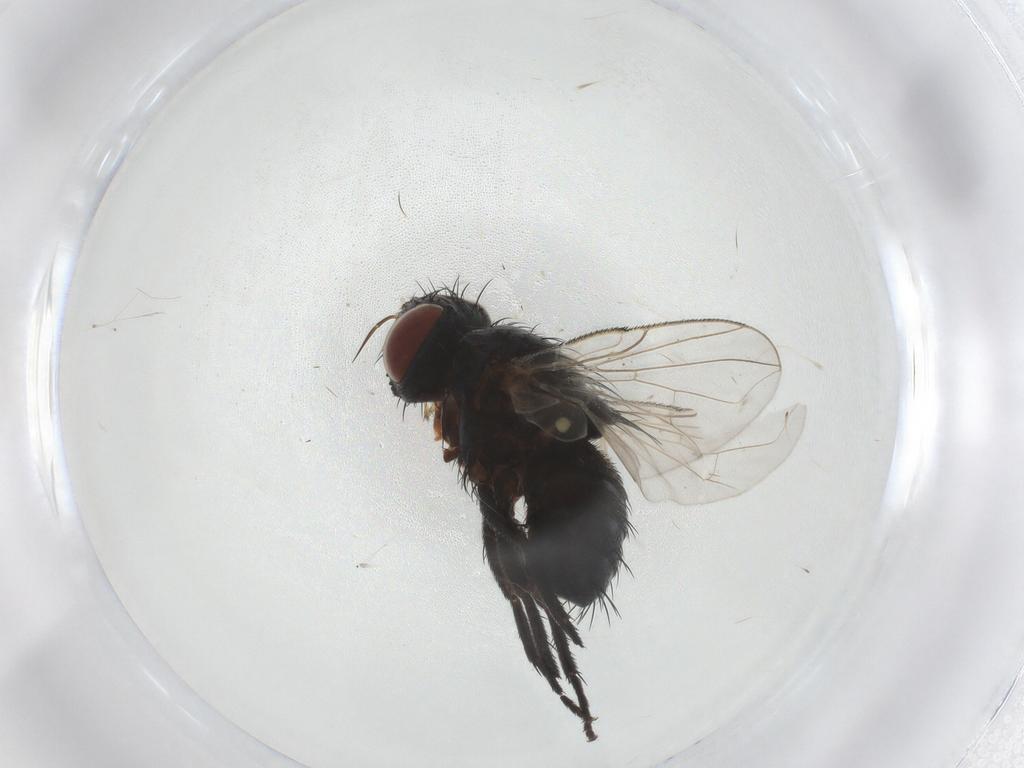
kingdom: Animalia
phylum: Arthropoda
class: Insecta
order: Diptera
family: Tachinidae
